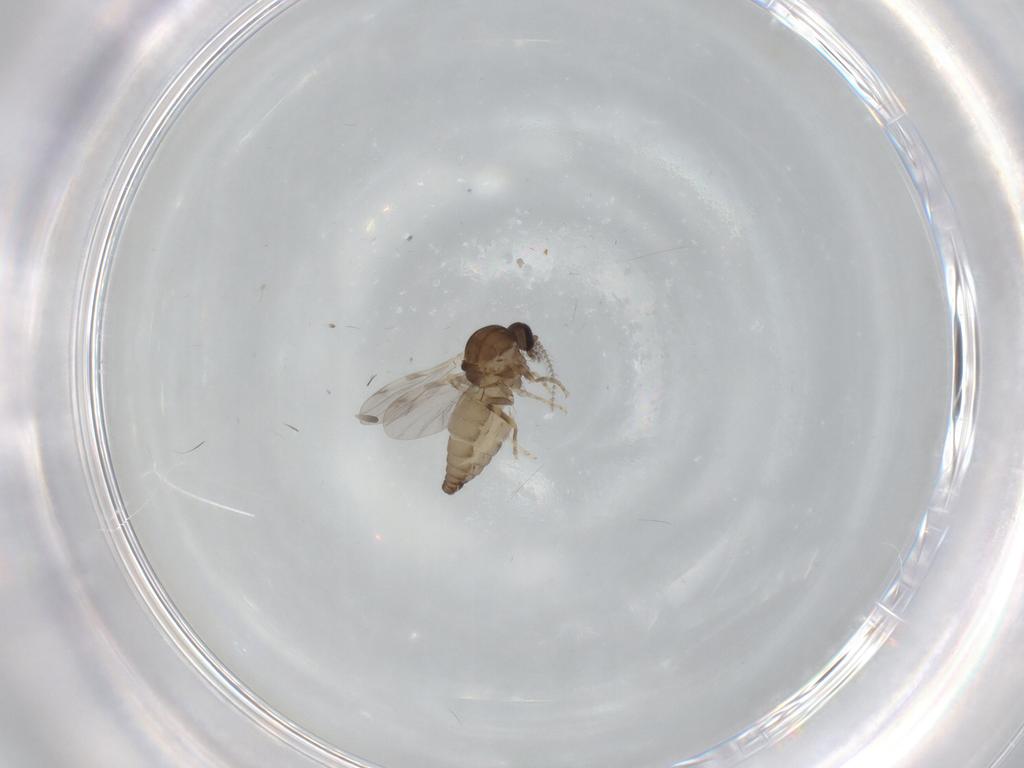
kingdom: Animalia
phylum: Arthropoda
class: Insecta
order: Diptera
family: Ceratopogonidae
